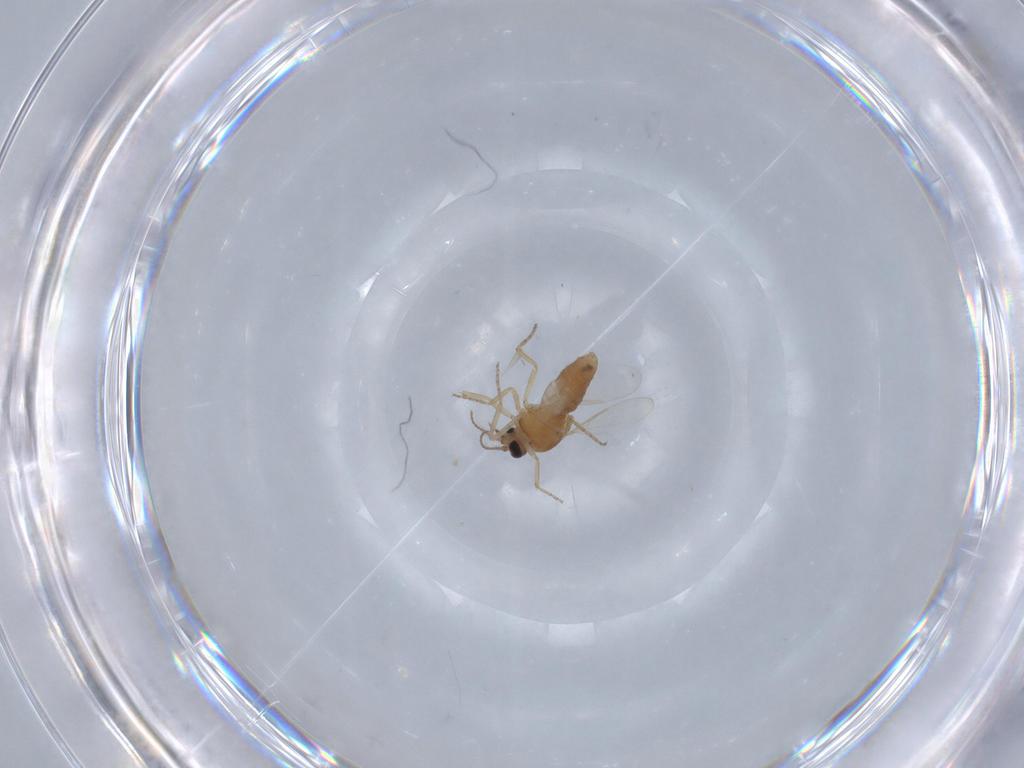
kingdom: Animalia
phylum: Arthropoda
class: Insecta
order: Diptera
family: Ceratopogonidae
